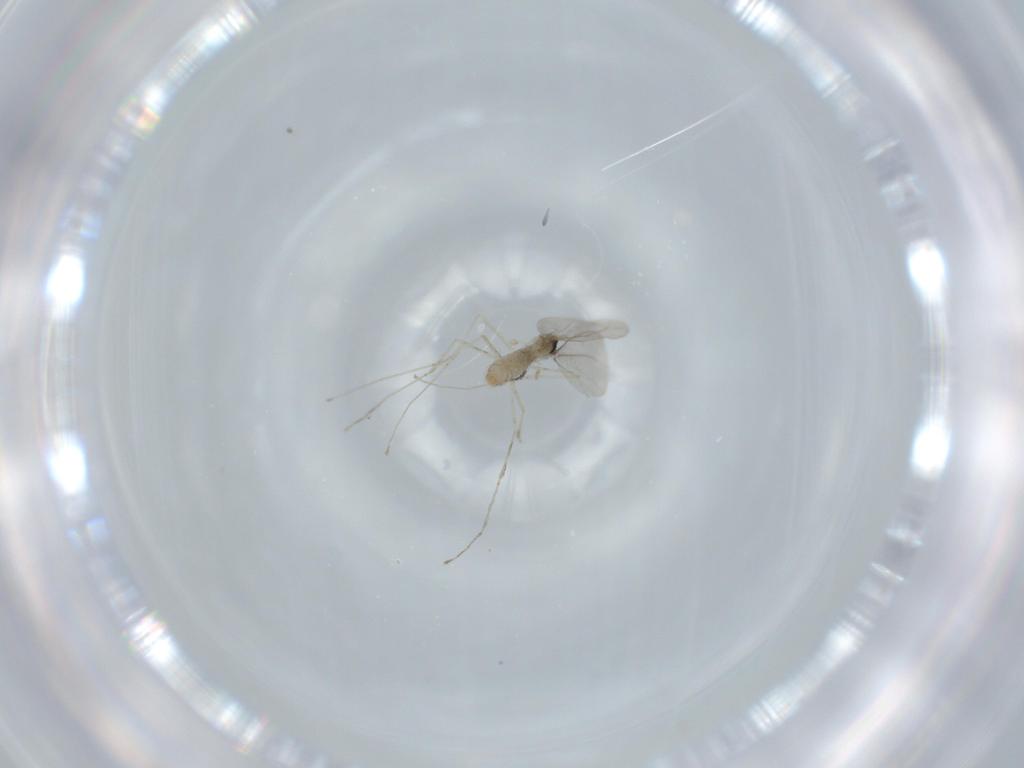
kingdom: Animalia
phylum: Arthropoda
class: Insecta
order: Diptera
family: Cecidomyiidae
